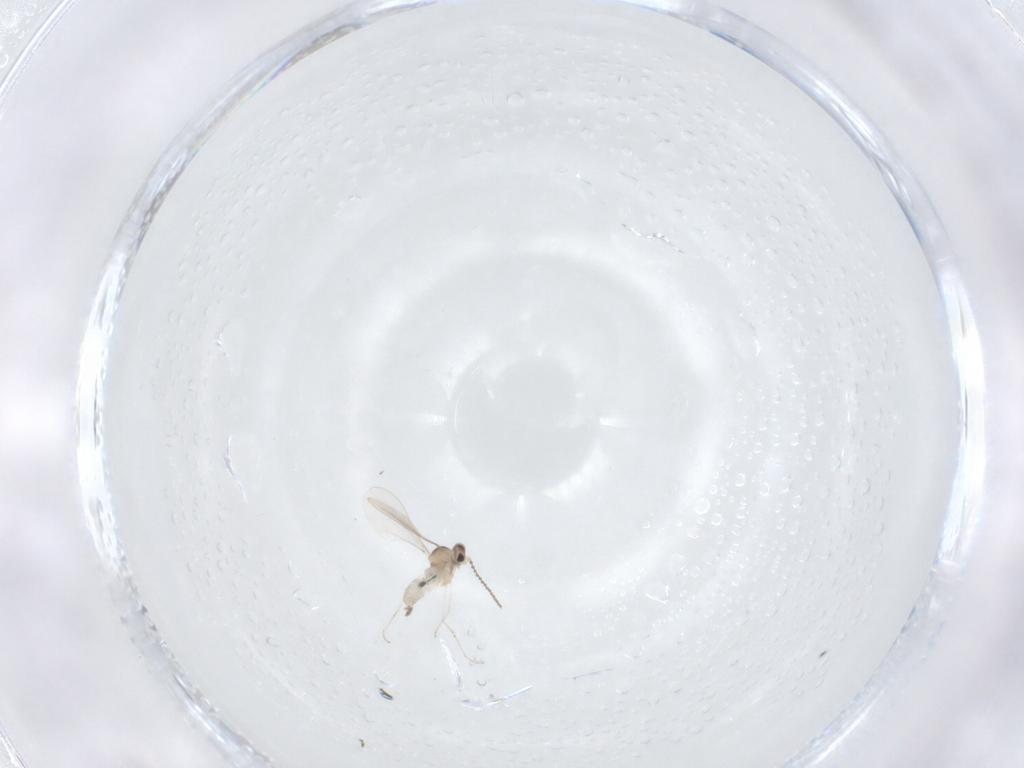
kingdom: Animalia
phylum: Arthropoda
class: Insecta
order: Diptera
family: Cecidomyiidae
